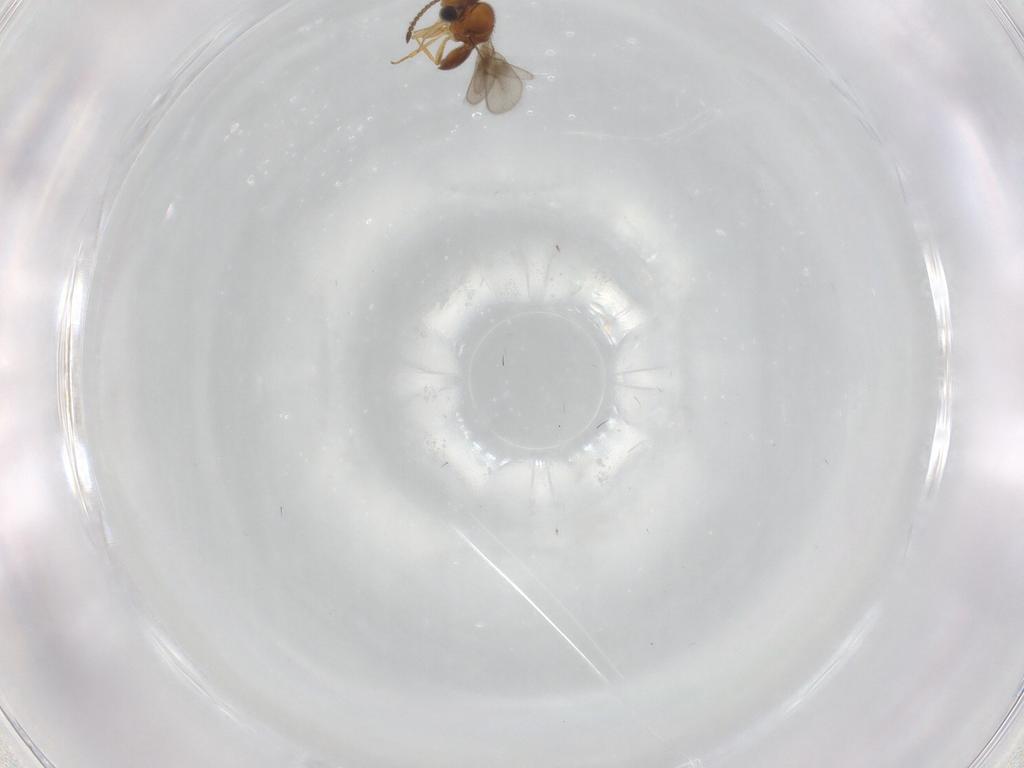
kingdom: Animalia
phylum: Arthropoda
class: Insecta
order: Hymenoptera
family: Scelionidae
